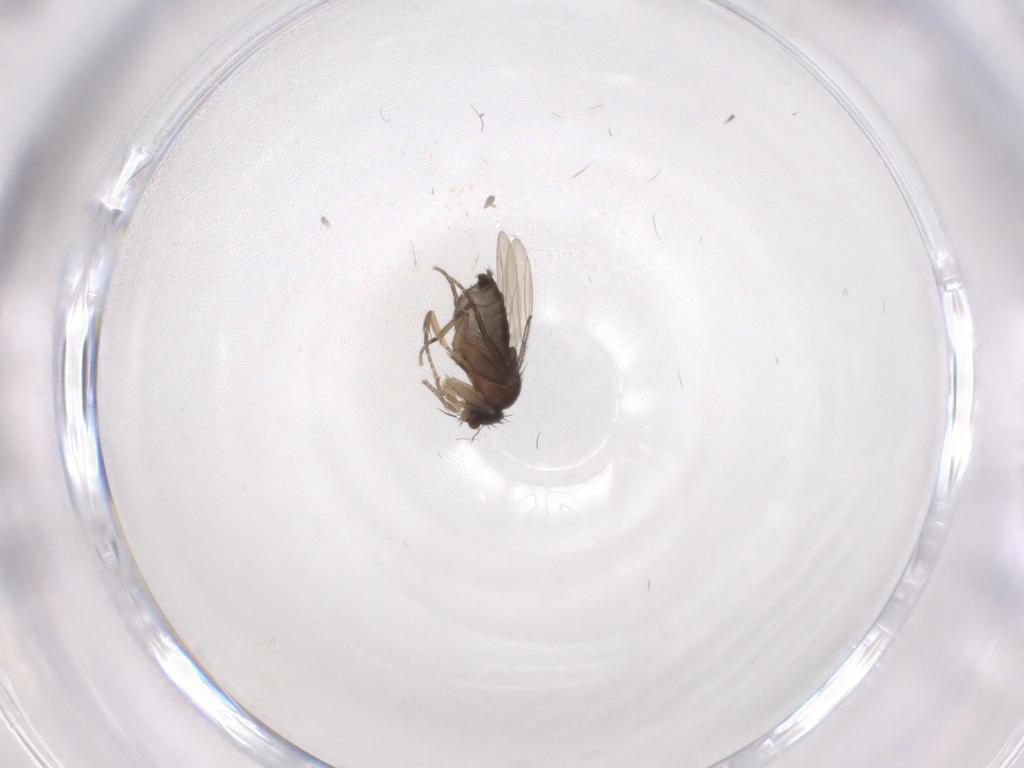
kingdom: Animalia
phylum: Arthropoda
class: Insecta
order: Diptera
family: Phoridae
